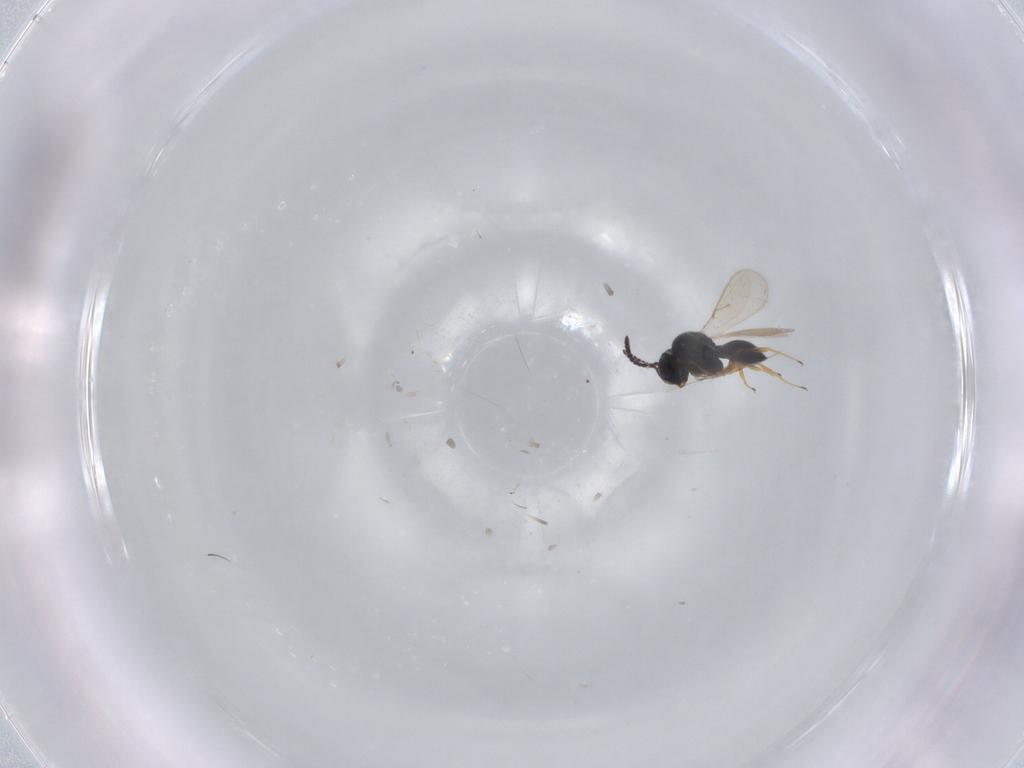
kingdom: Animalia
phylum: Arthropoda
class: Insecta
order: Hymenoptera
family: Scelionidae
